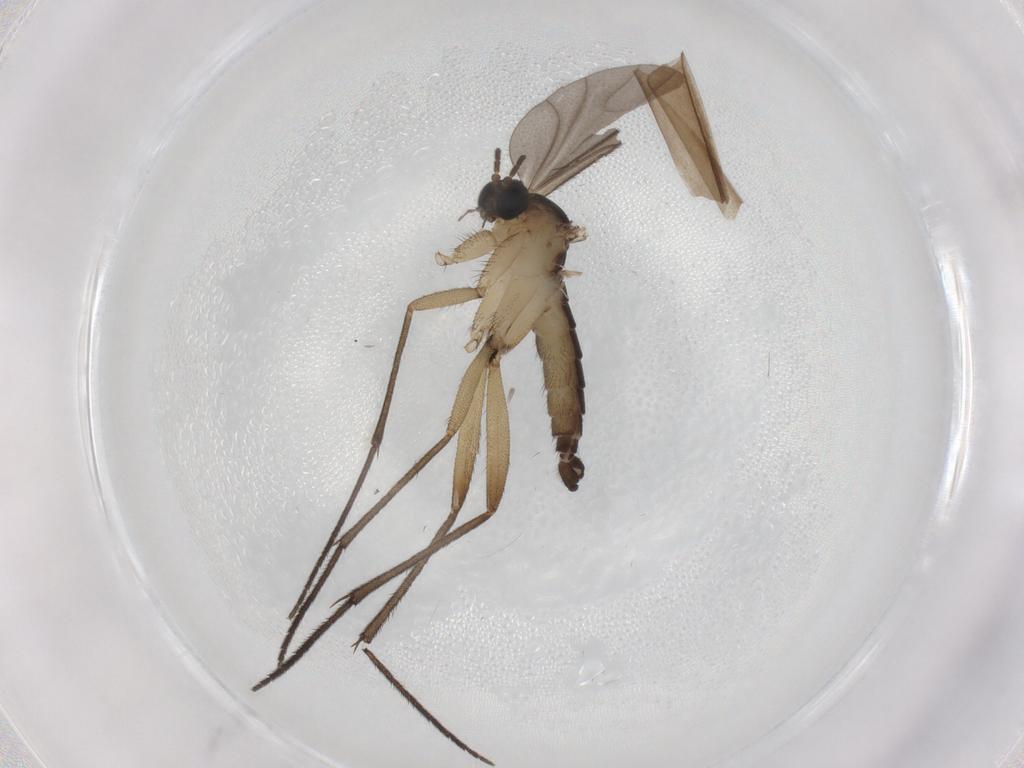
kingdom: Animalia
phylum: Arthropoda
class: Insecta
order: Diptera
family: Sciaridae
